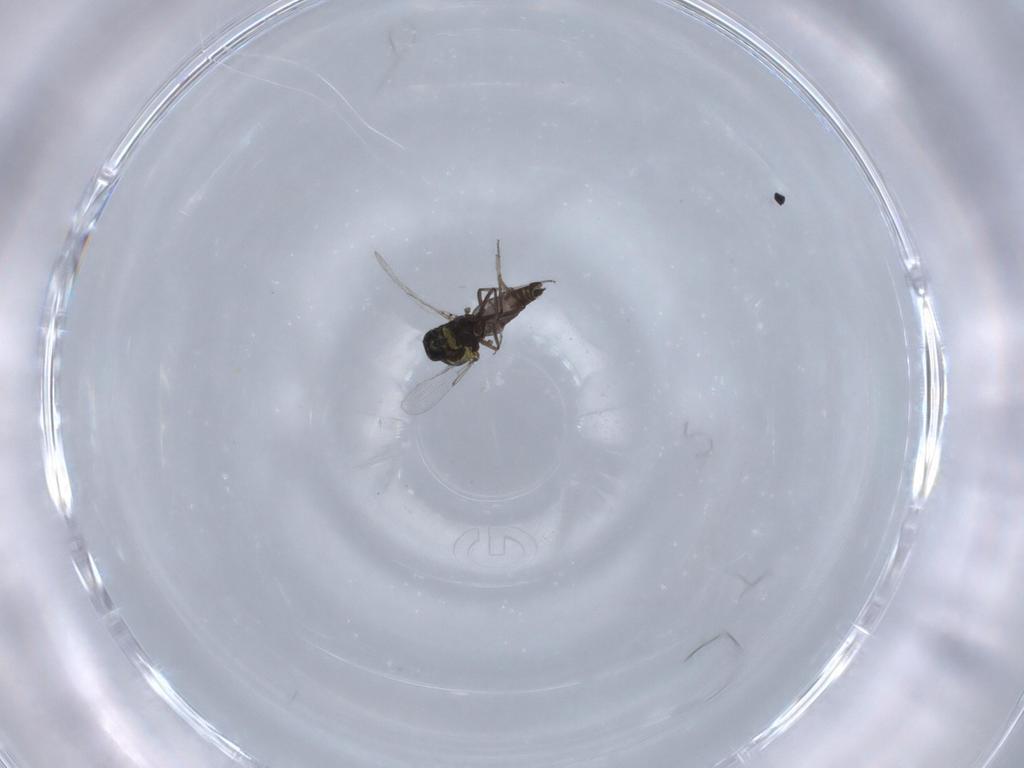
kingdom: Animalia
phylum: Arthropoda
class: Insecta
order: Diptera
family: Ceratopogonidae
